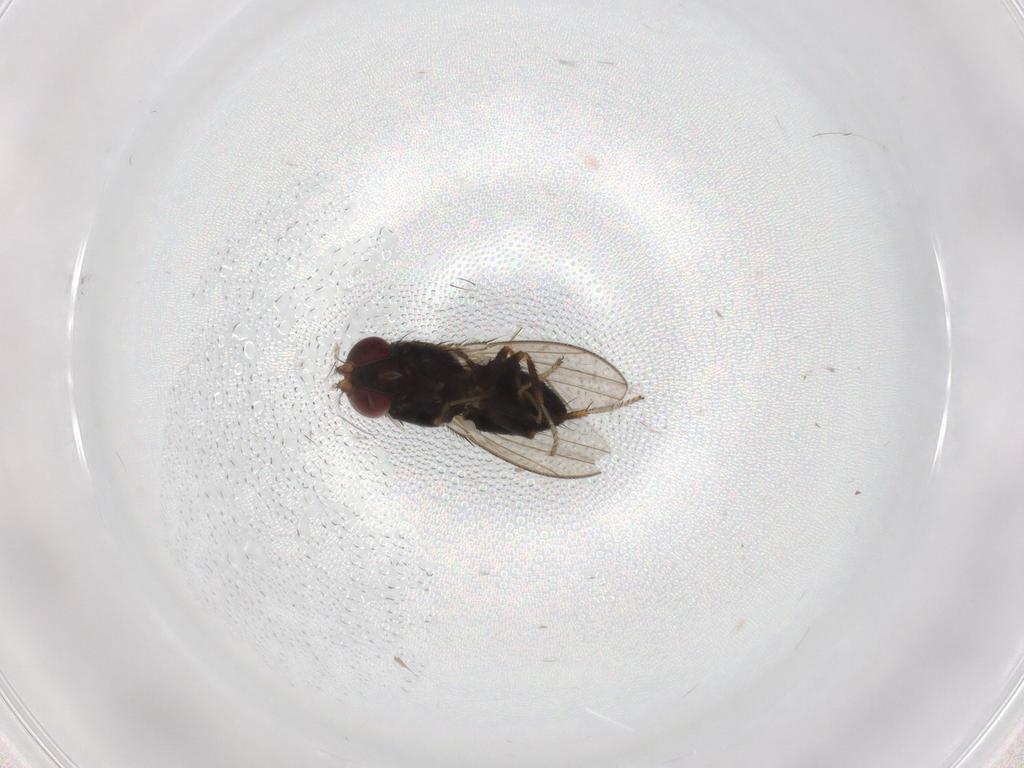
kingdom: Animalia
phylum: Arthropoda
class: Insecta
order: Diptera
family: Ephydridae
